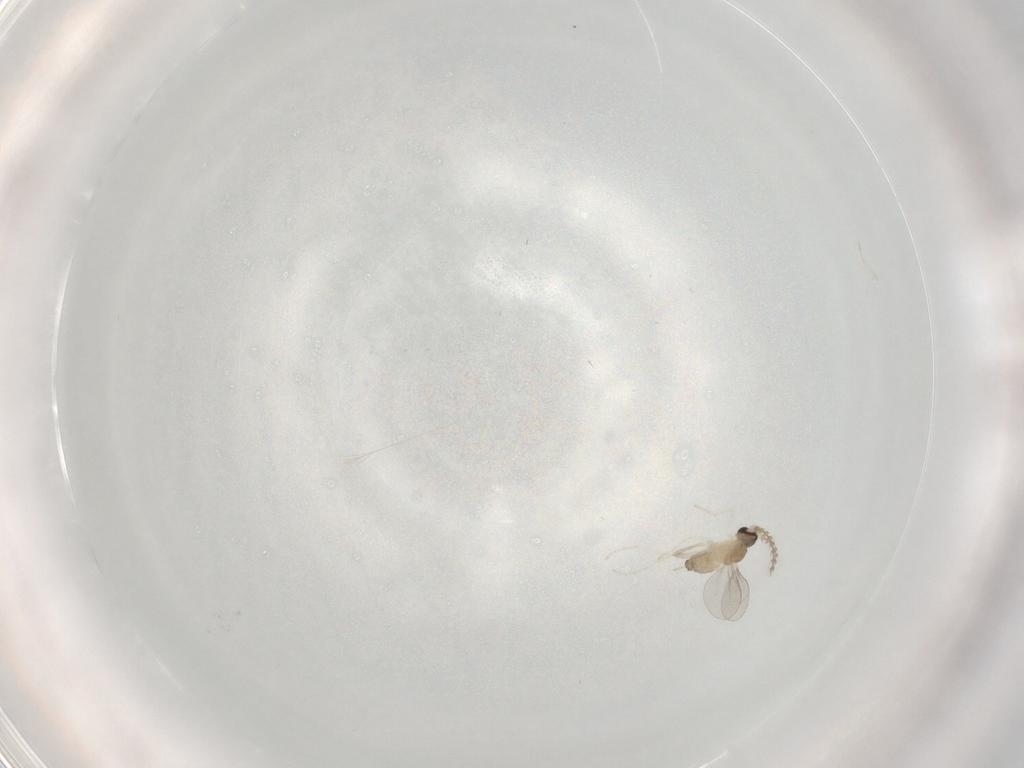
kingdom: Animalia
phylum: Arthropoda
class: Insecta
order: Diptera
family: Cecidomyiidae
